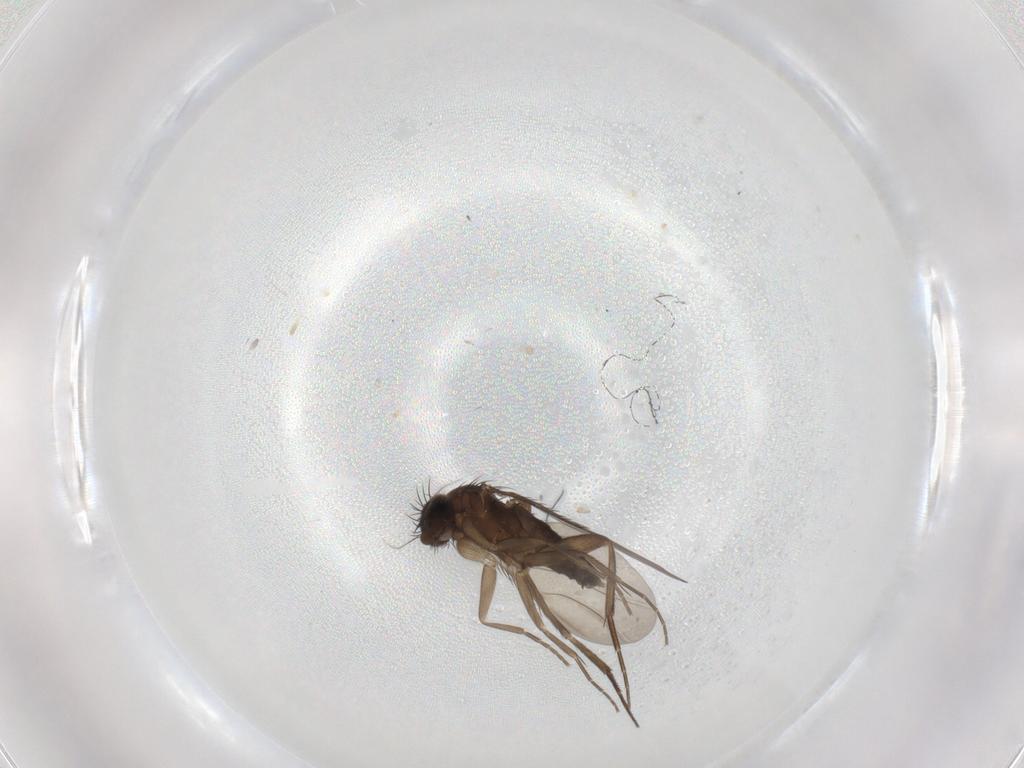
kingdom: Animalia
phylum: Arthropoda
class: Insecta
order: Diptera
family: Phoridae
